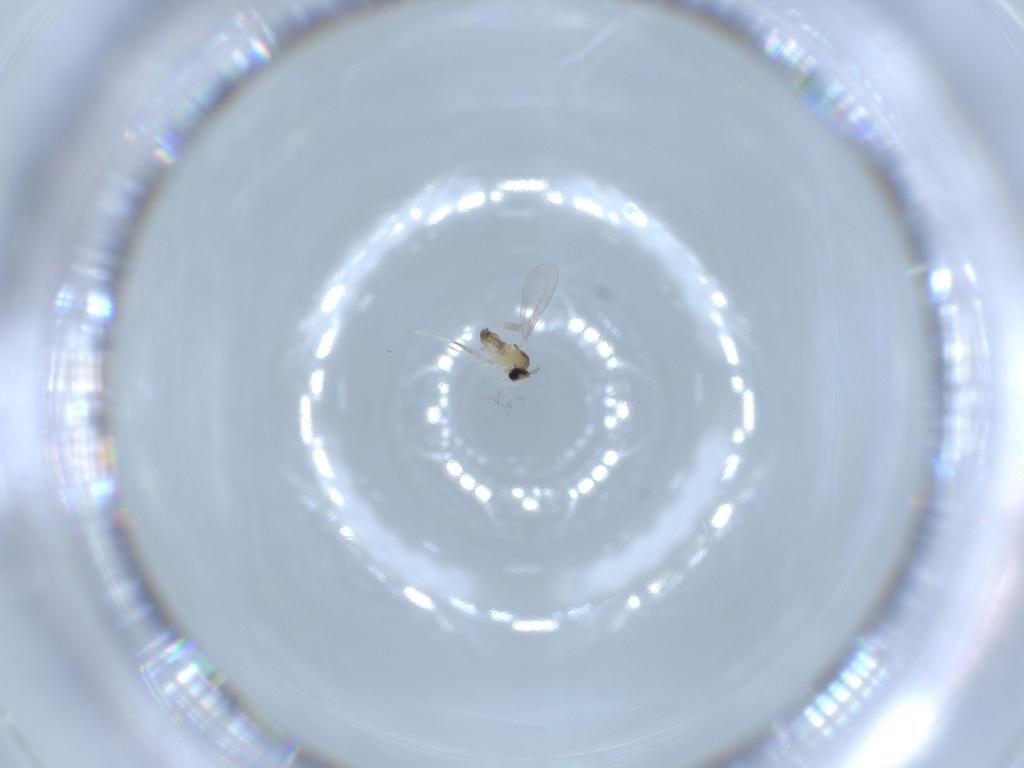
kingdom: Animalia
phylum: Arthropoda
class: Insecta
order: Diptera
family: Cecidomyiidae
